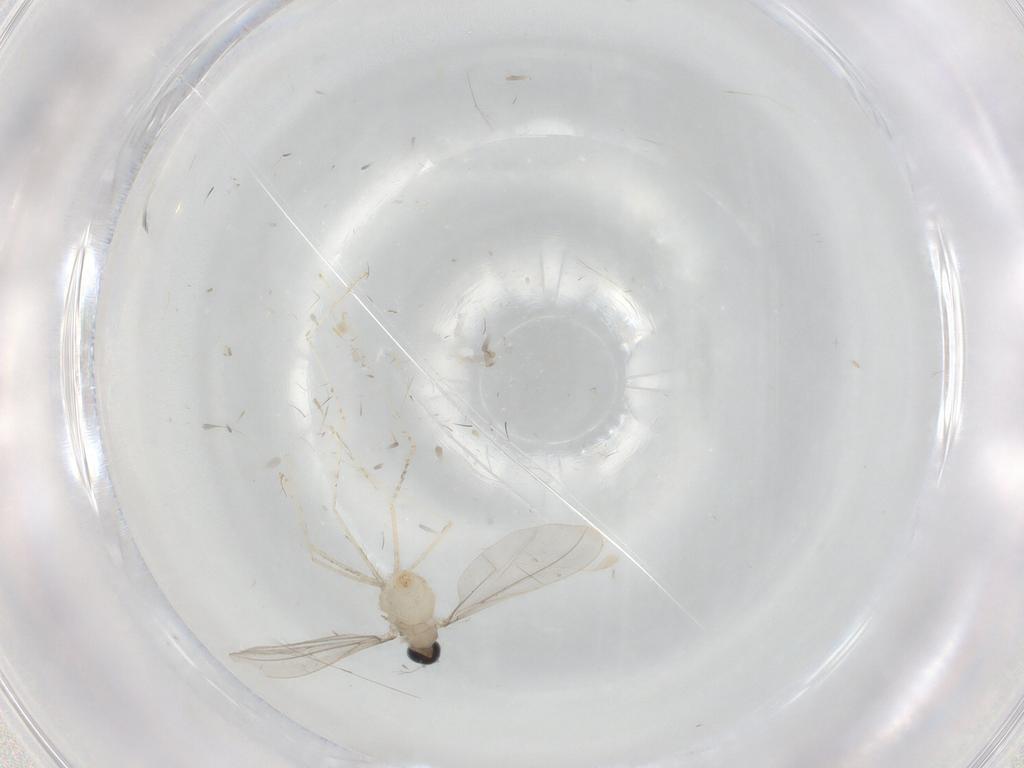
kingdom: Animalia
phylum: Arthropoda
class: Insecta
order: Diptera
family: Cecidomyiidae
